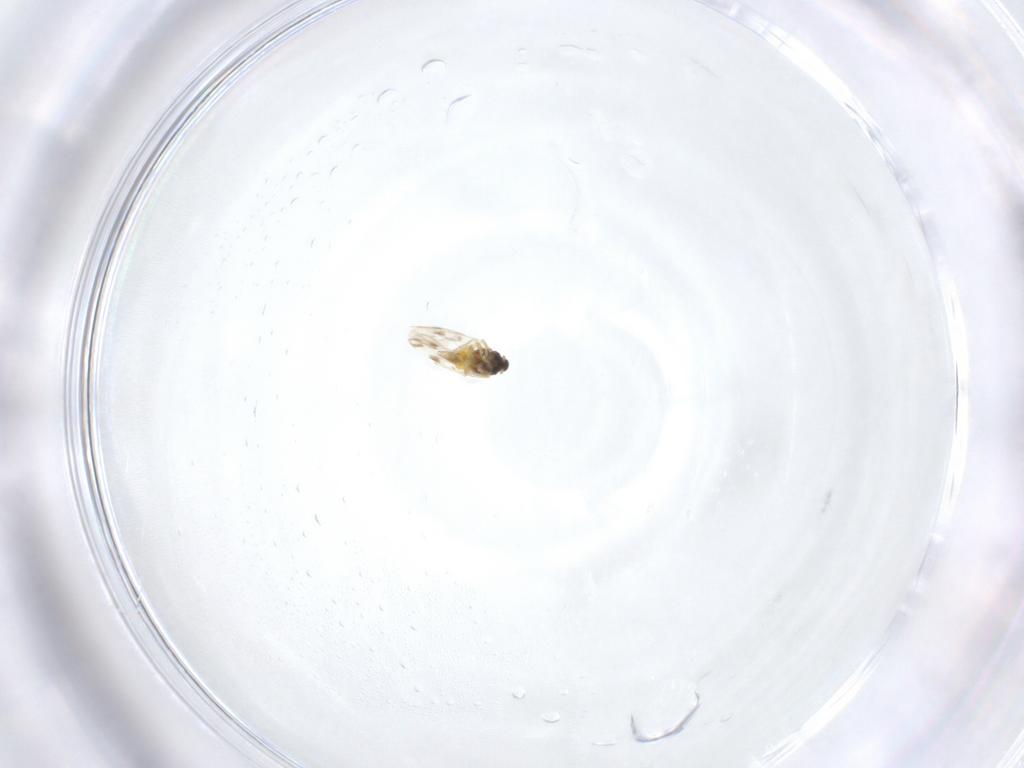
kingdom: Animalia
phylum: Arthropoda
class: Insecta
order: Hemiptera
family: Aleyrodidae
